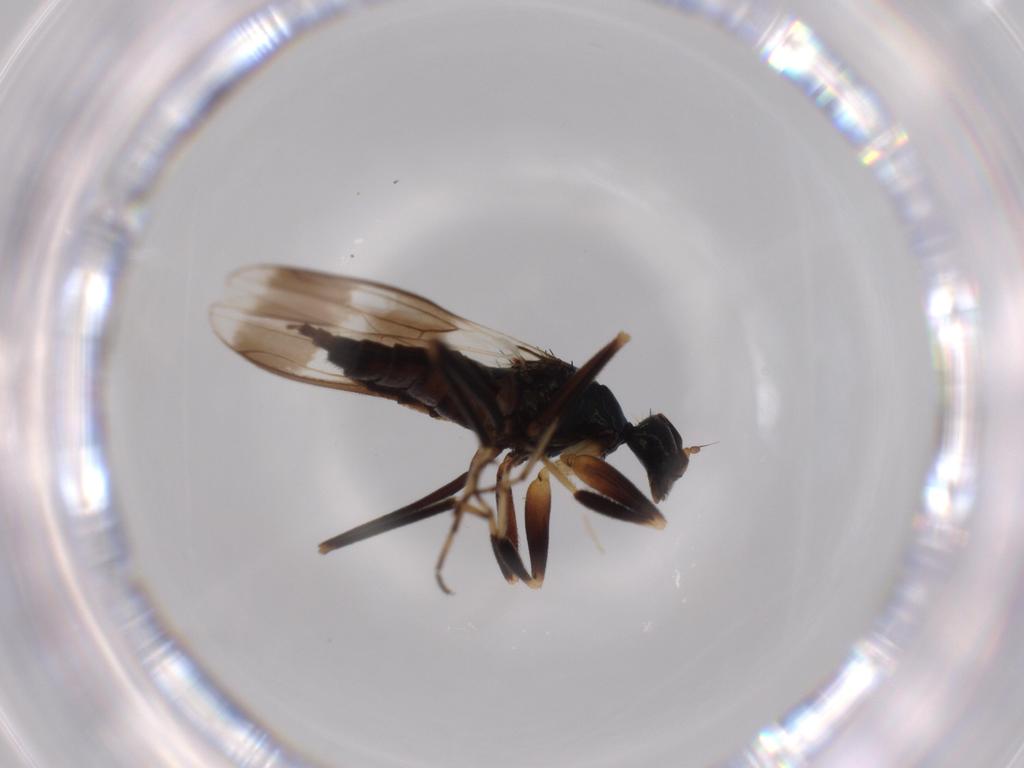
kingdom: Animalia
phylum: Arthropoda
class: Insecta
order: Diptera
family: Hybotidae
